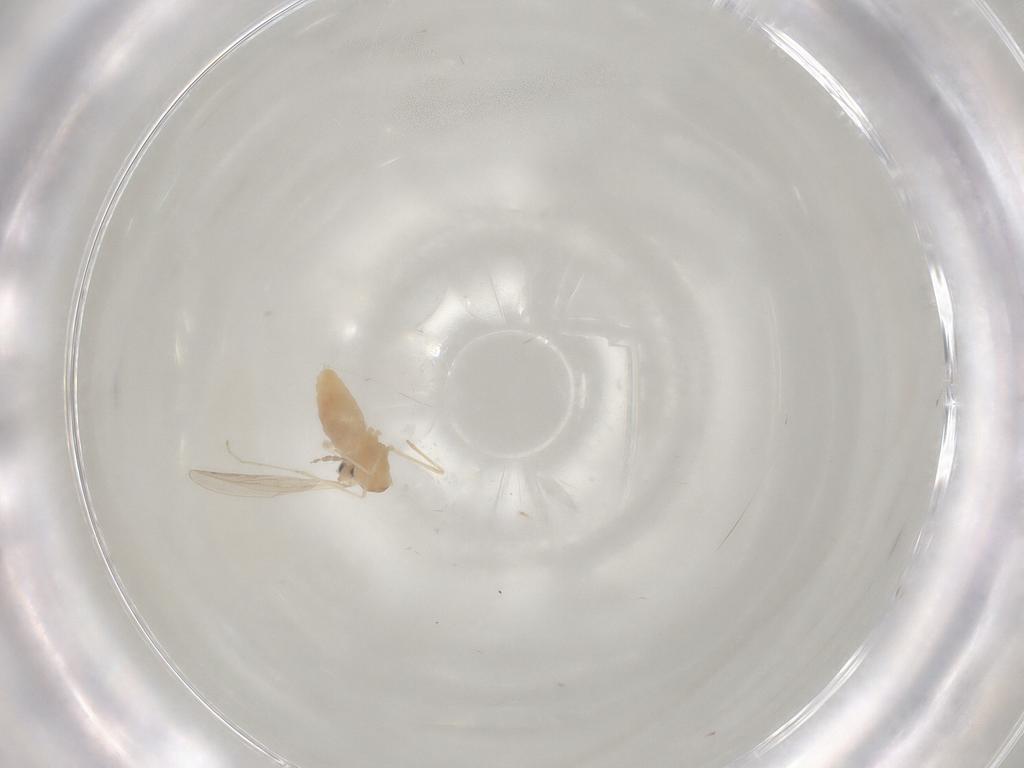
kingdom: Animalia
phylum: Arthropoda
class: Insecta
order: Diptera
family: Cecidomyiidae
